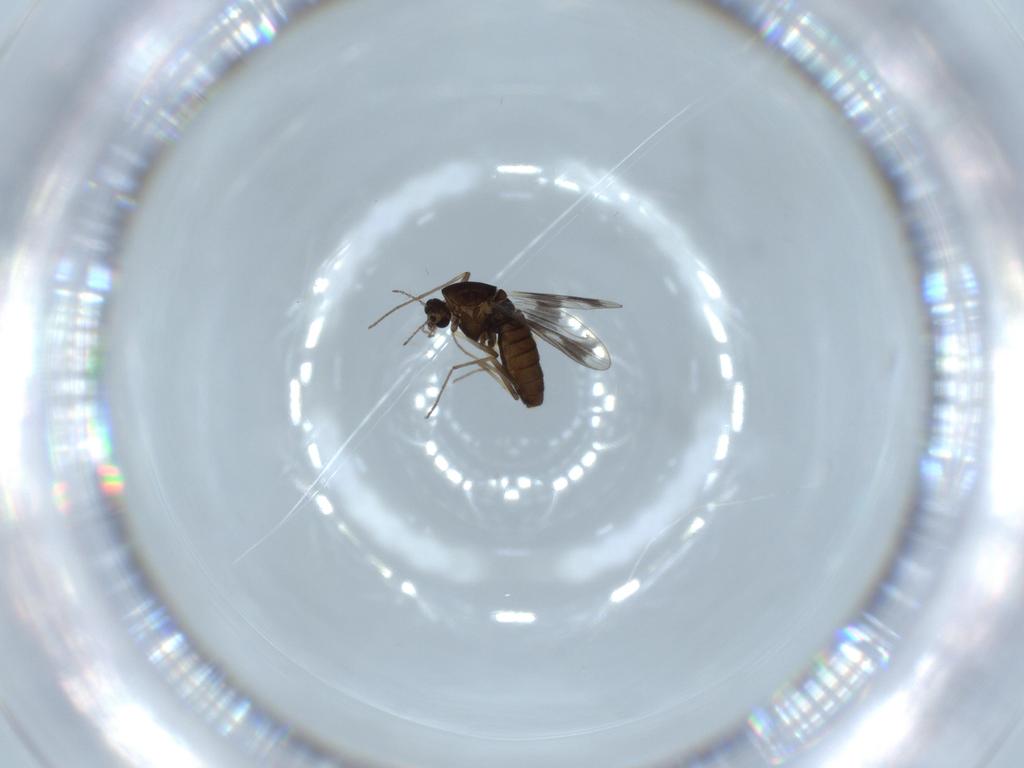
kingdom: Animalia
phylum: Arthropoda
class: Insecta
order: Diptera
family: Chironomidae
